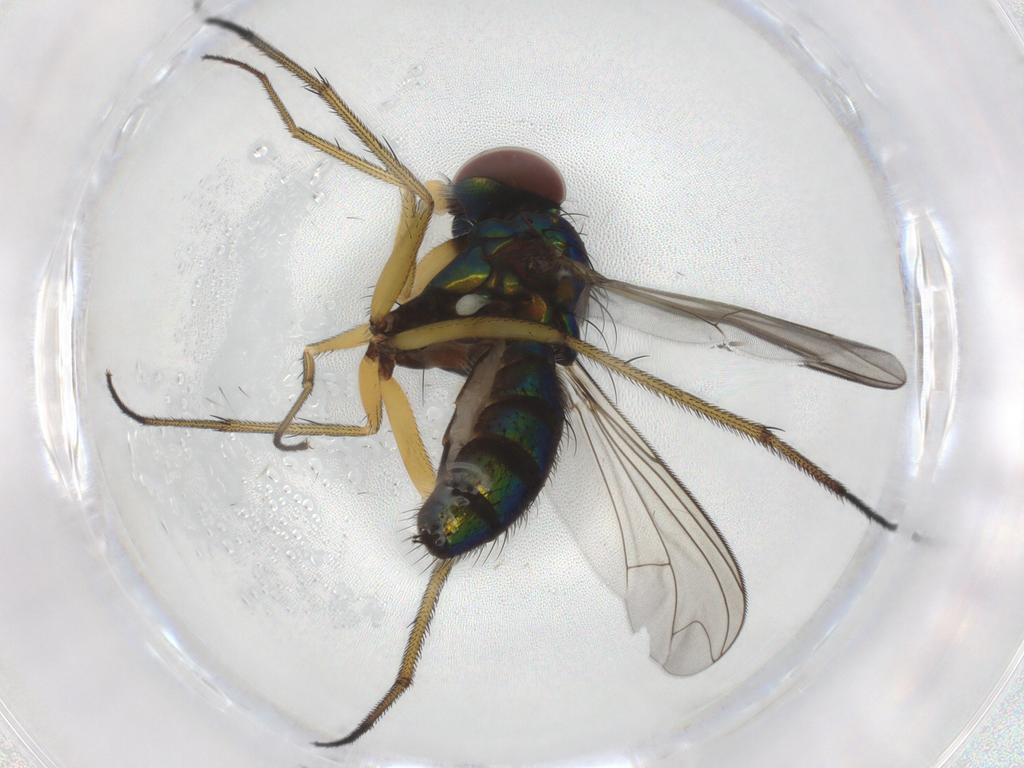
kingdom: Animalia
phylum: Arthropoda
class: Insecta
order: Diptera
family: Dolichopodidae
